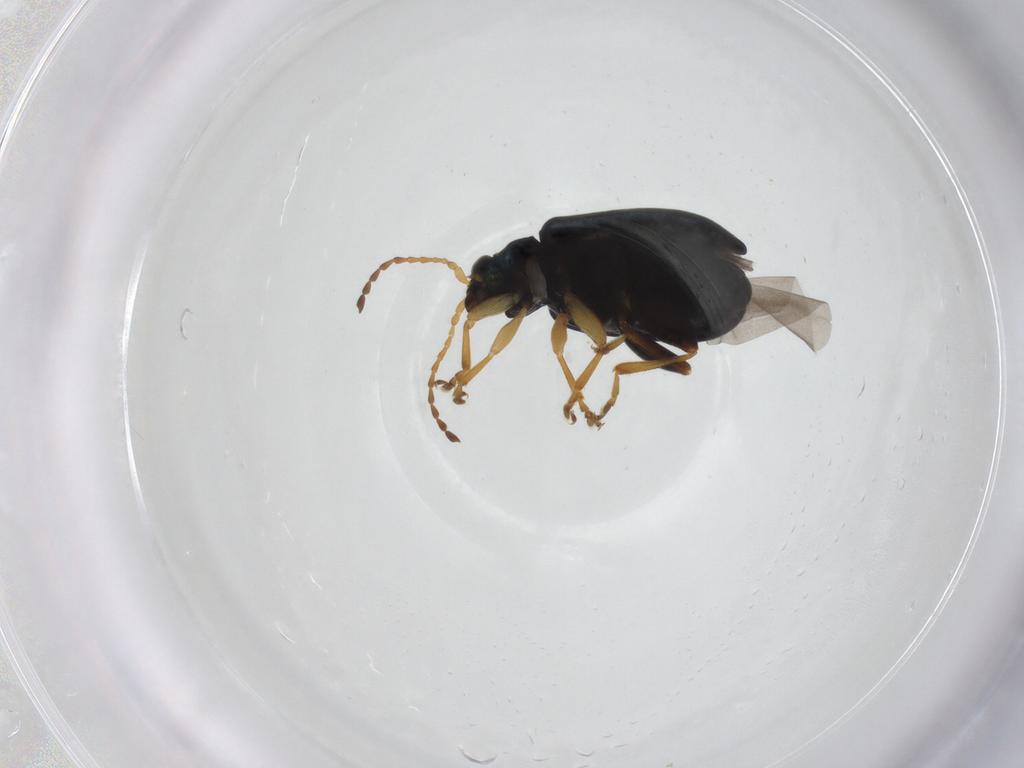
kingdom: Animalia
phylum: Arthropoda
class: Insecta
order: Coleoptera
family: Chrysomelidae
